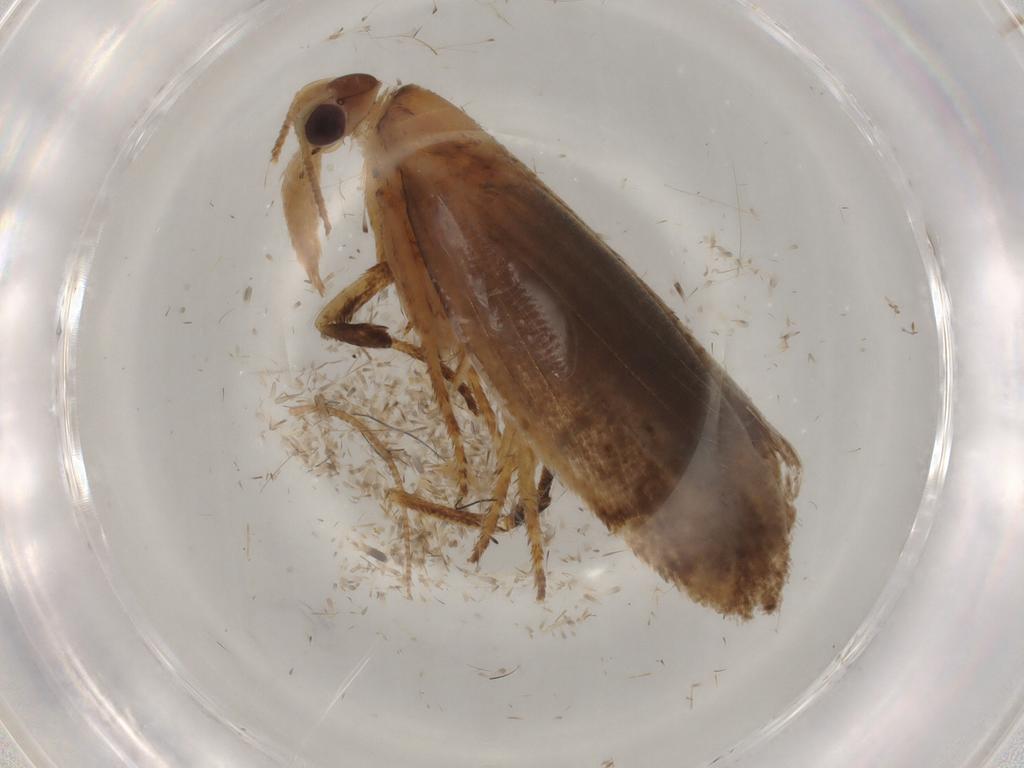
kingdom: Animalia
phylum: Arthropoda
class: Insecta
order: Lepidoptera
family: Gelechiidae
